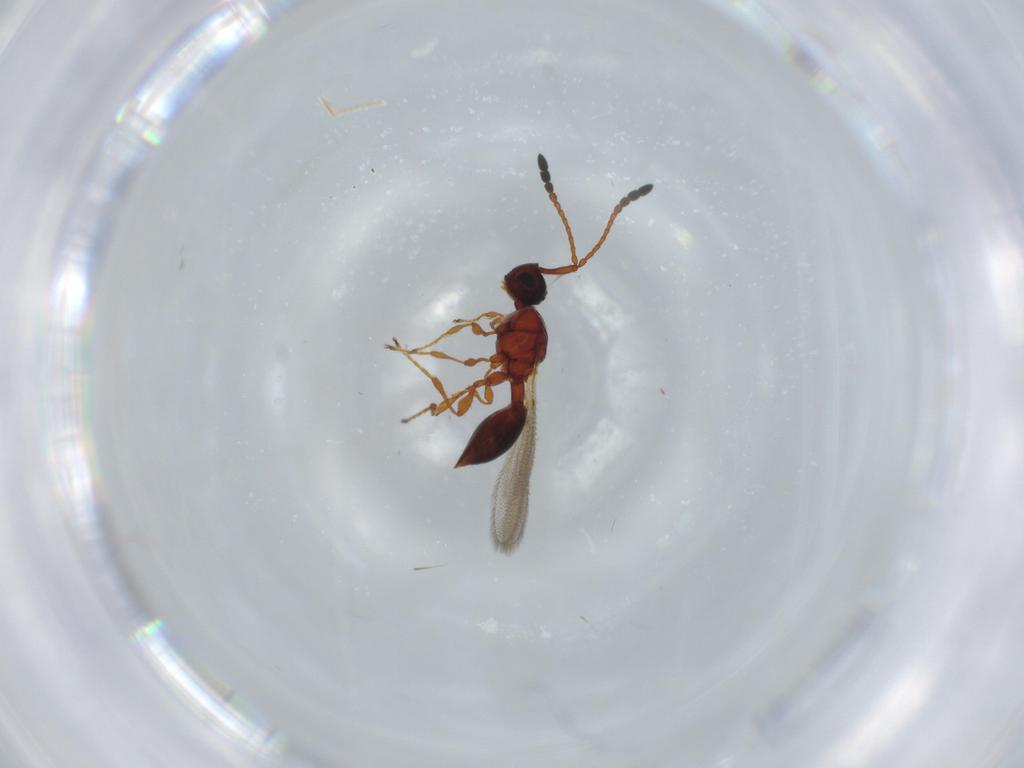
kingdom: Animalia
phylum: Arthropoda
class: Insecta
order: Hymenoptera
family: Diapriidae
